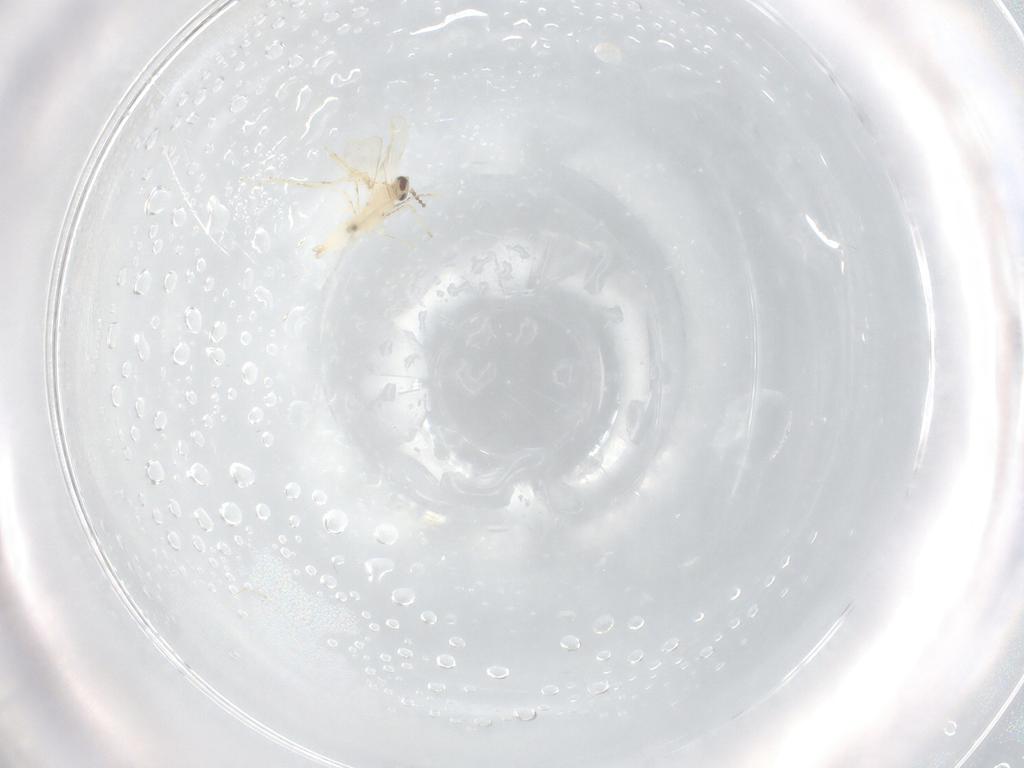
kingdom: Animalia
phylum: Arthropoda
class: Insecta
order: Diptera
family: Cecidomyiidae
